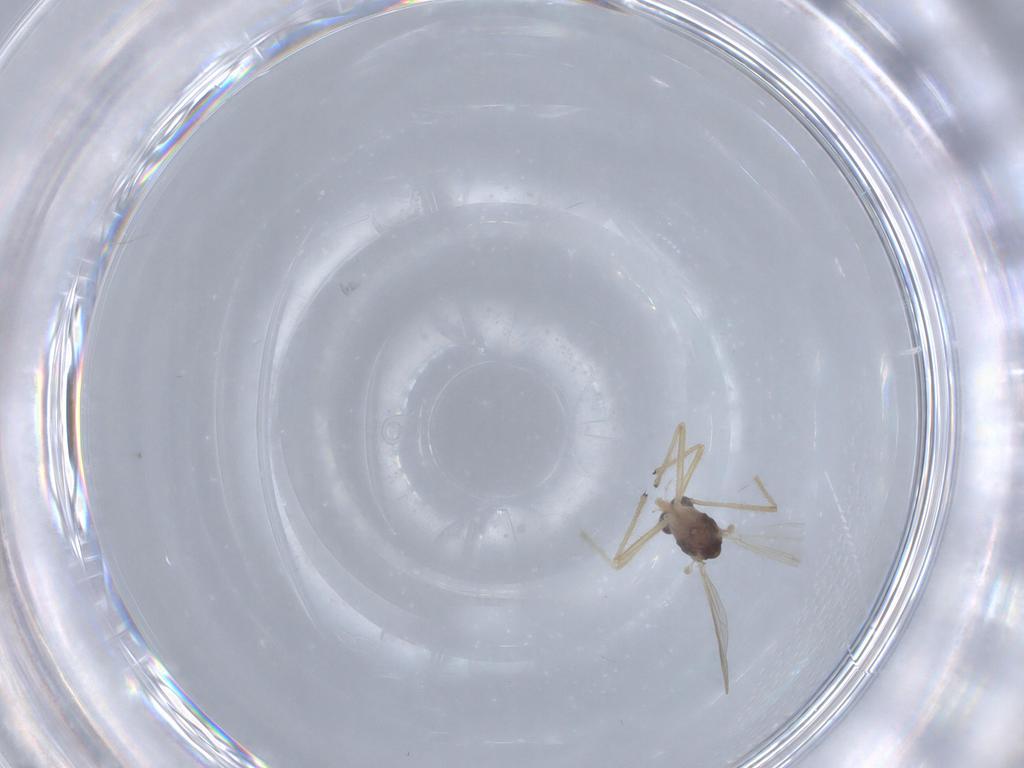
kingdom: Animalia
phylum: Arthropoda
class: Insecta
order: Diptera
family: Chironomidae
